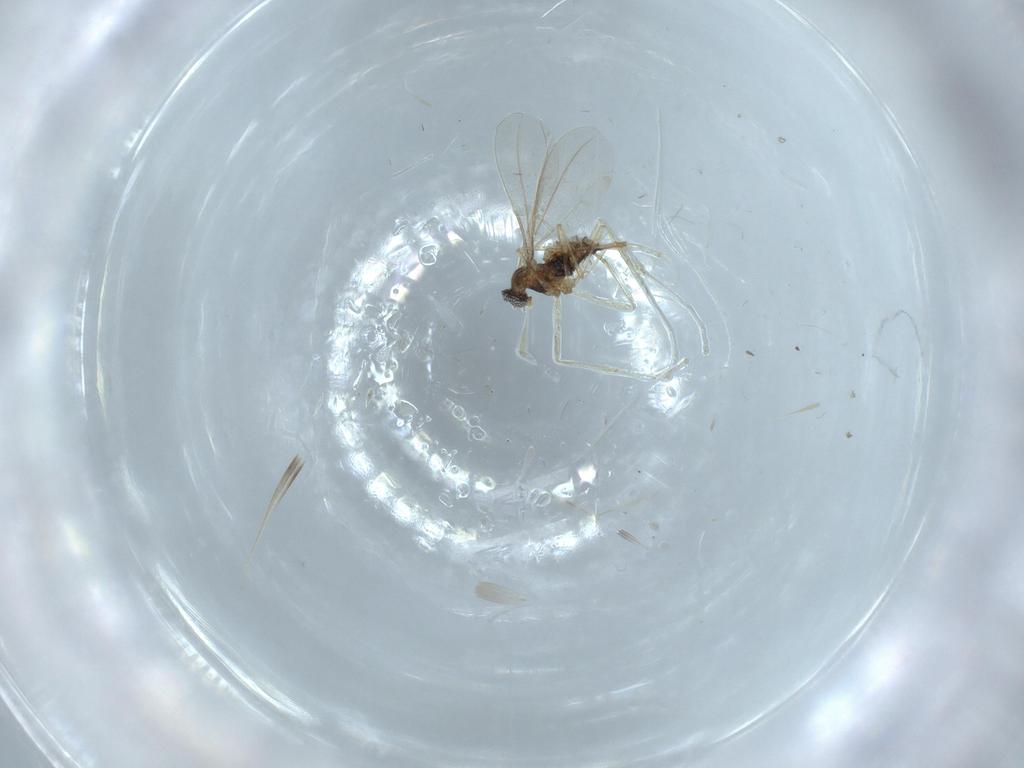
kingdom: Animalia
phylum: Arthropoda
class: Insecta
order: Diptera
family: Cecidomyiidae
